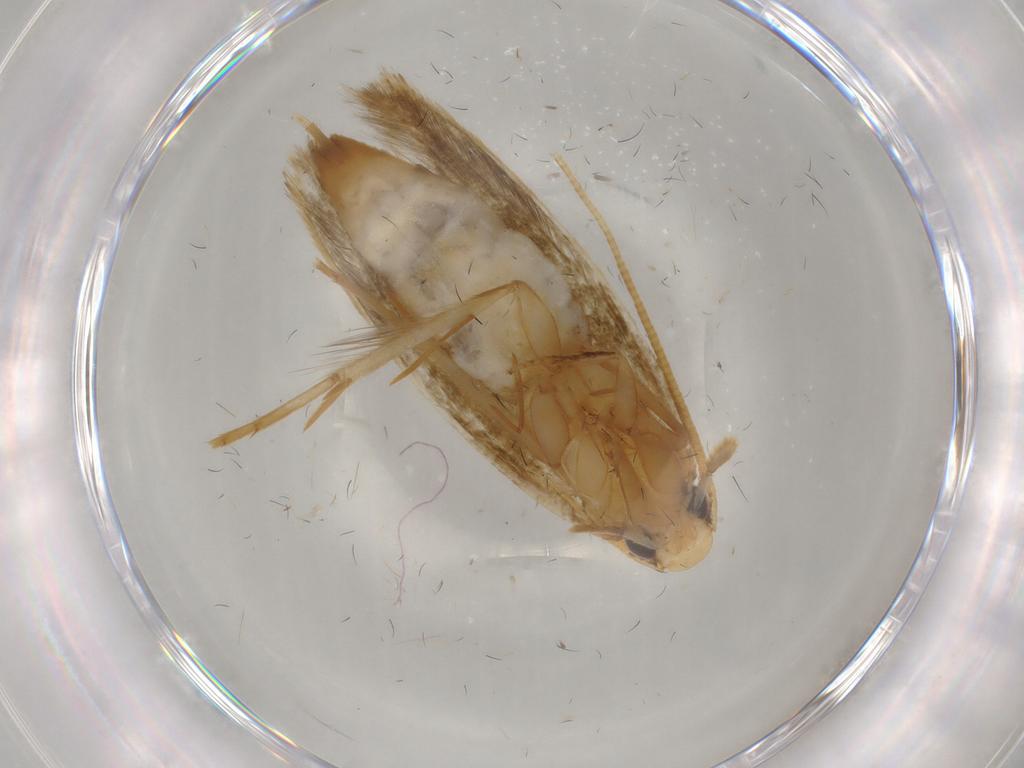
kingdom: Animalia
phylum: Arthropoda
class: Insecta
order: Lepidoptera
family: Tineidae
